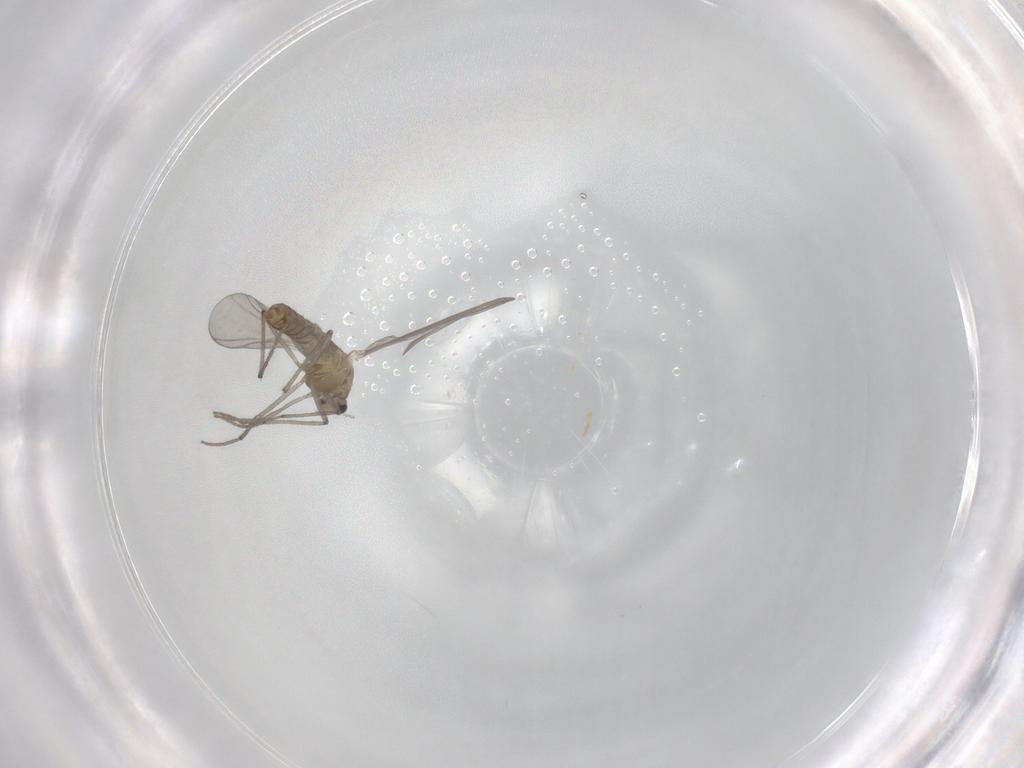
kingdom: Animalia
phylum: Arthropoda
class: Insecta
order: Diptera
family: Chironomidae
